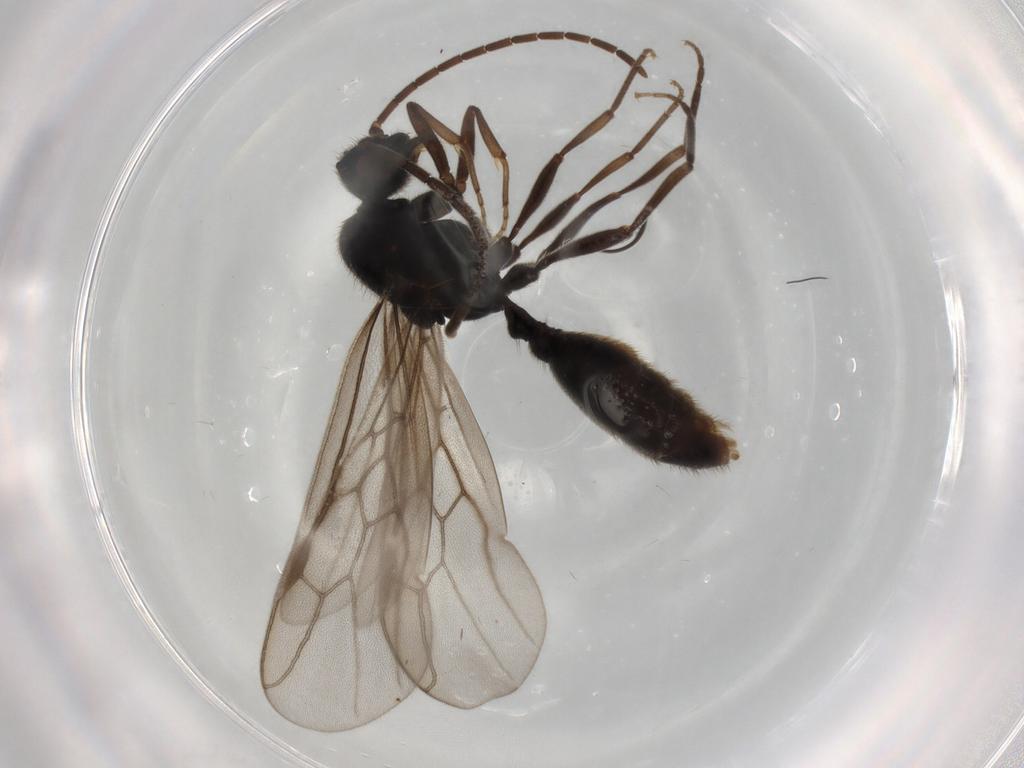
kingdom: Animalia
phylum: Arthropoda
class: Insecta
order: Hymenoptera
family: Formicidae
